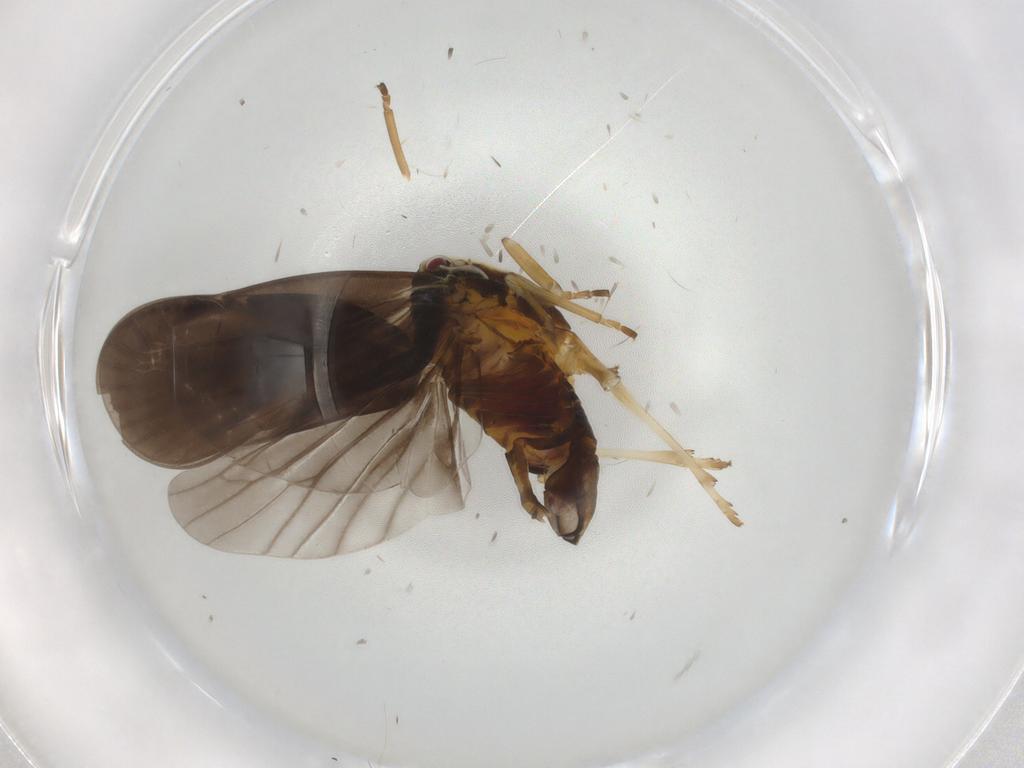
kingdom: Animalia
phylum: Arthropoda
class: Insecta
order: Hemiptera
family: Derbidae
